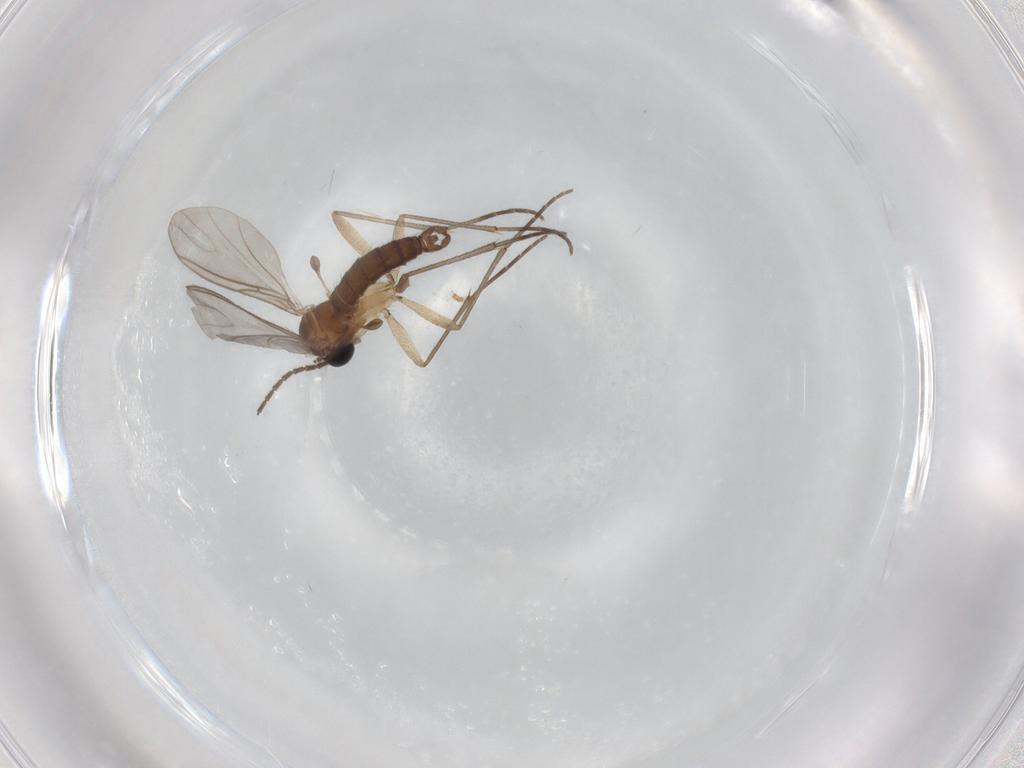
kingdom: Animalia
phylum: Arthropoda
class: Insecta
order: Diptera
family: Sciaridae
